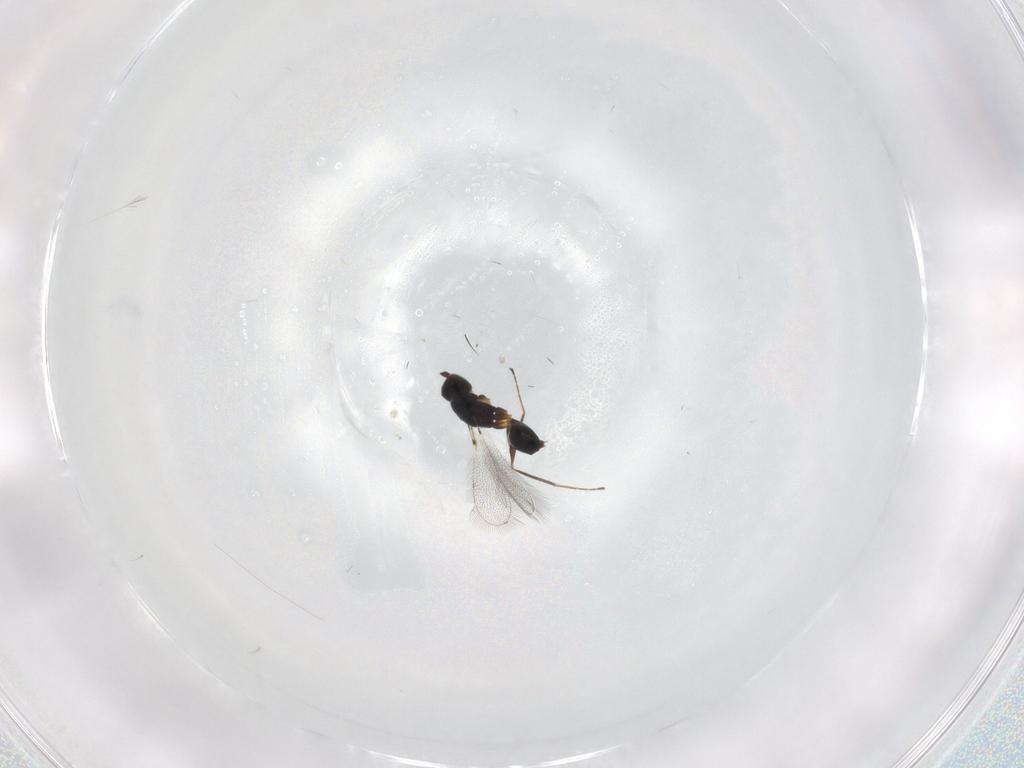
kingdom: Animalia
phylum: Arthropoda
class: Insecta
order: Hymenoptera
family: Mymaridae
